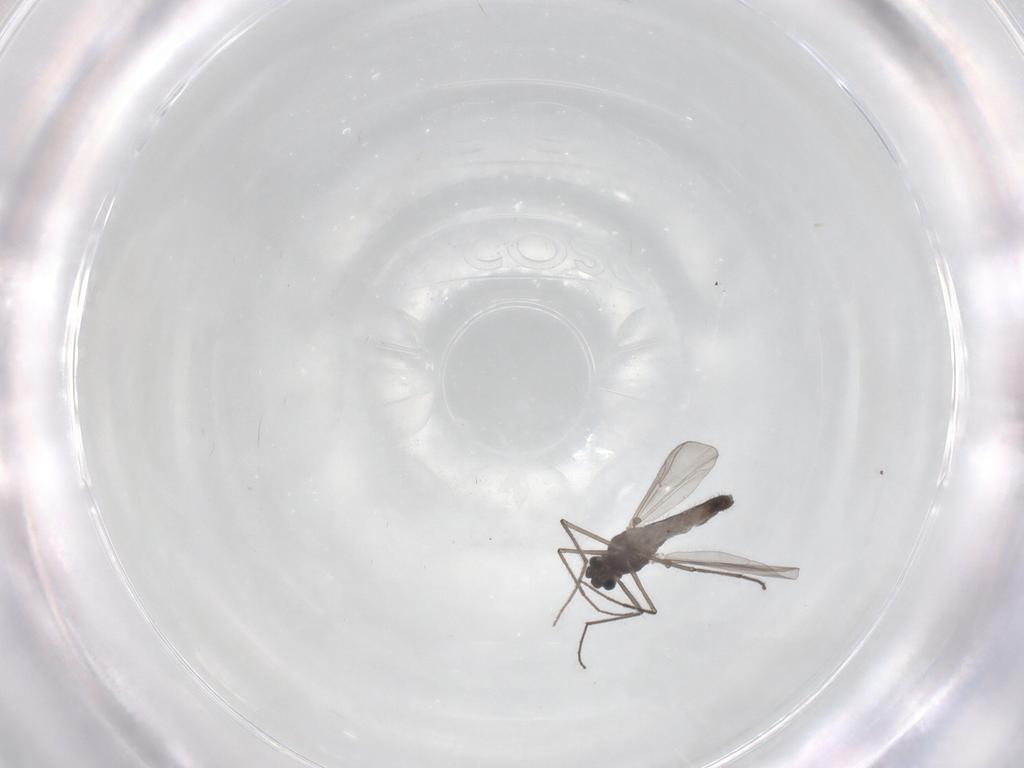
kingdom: Animalia
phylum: Arthropoda
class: Insecta
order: Diptera
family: Chironomidae
